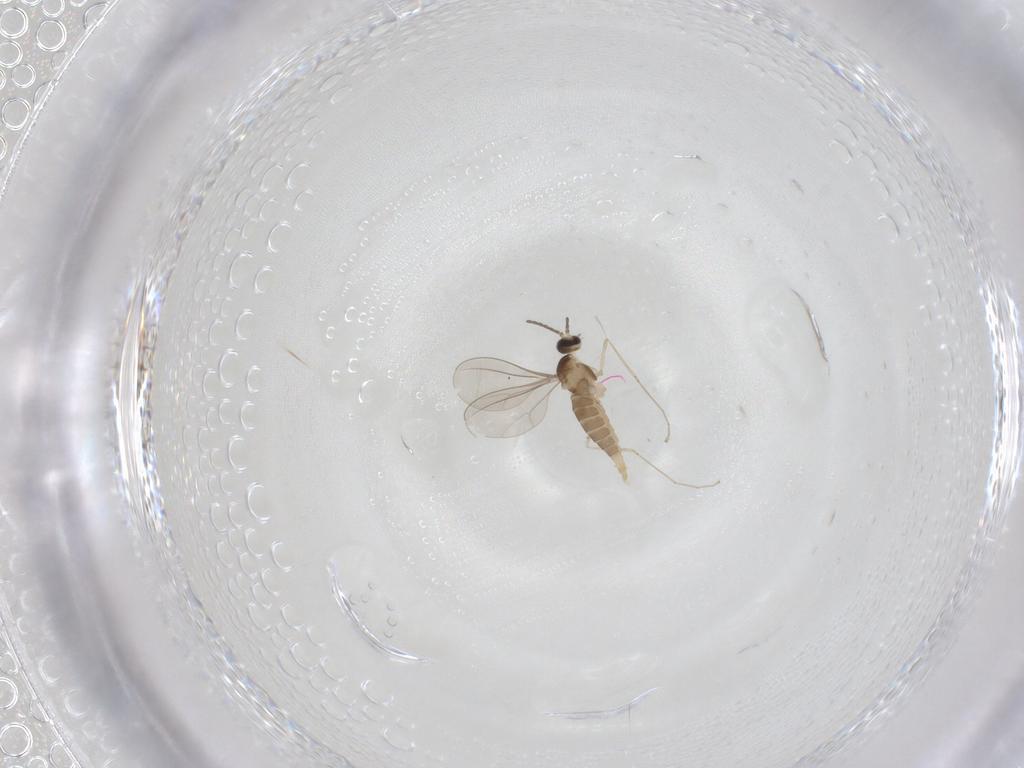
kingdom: Animalia
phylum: Arthropoda
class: Insecta
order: Diptera
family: Cecidomyiidae
